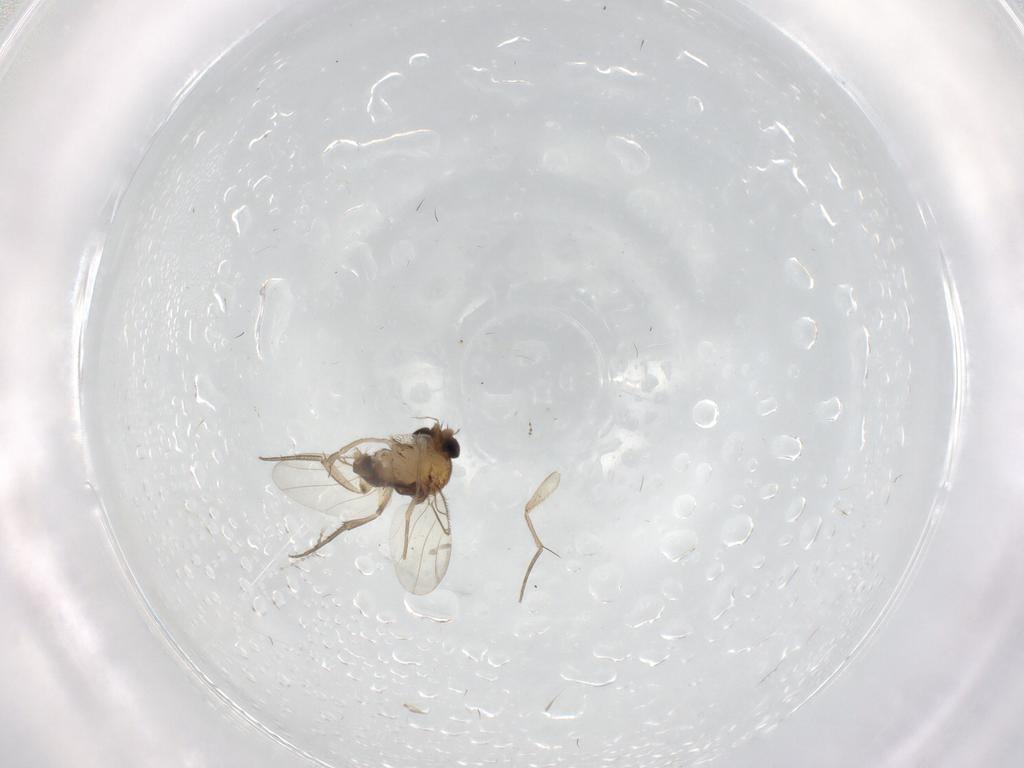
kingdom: Animalia
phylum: Arthropoda
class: Insecta
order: Diptera
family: Phoridae
